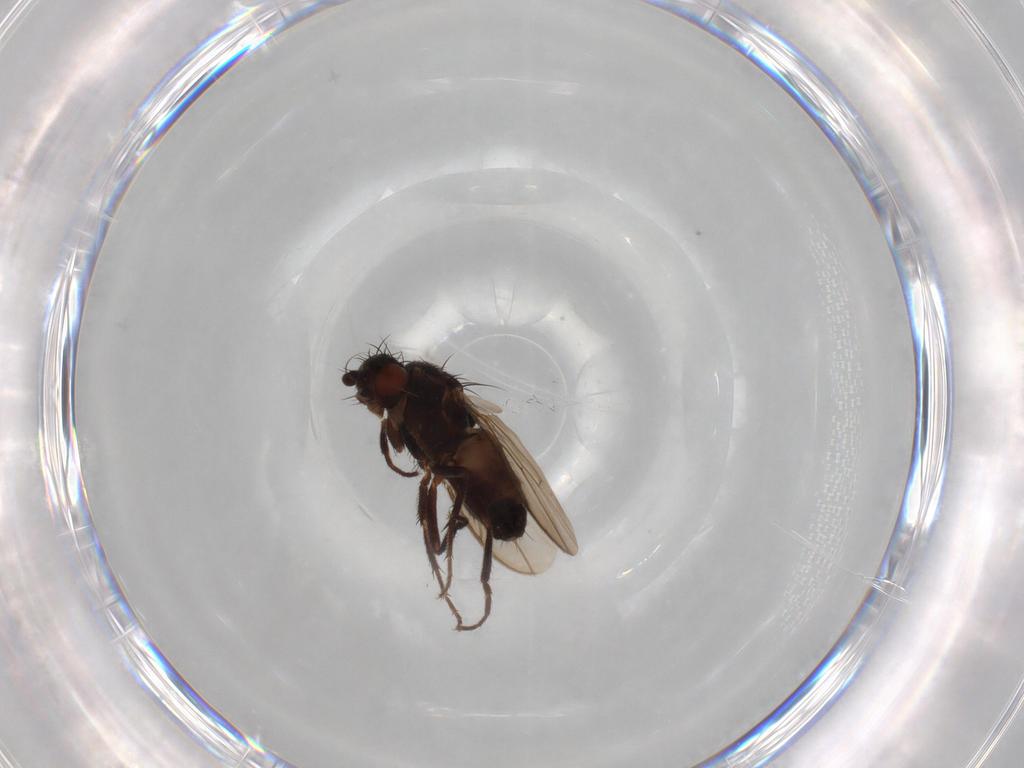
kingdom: Animalia
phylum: Arthropoda
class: Insecta
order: Diptera
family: Sphaeroceridae
